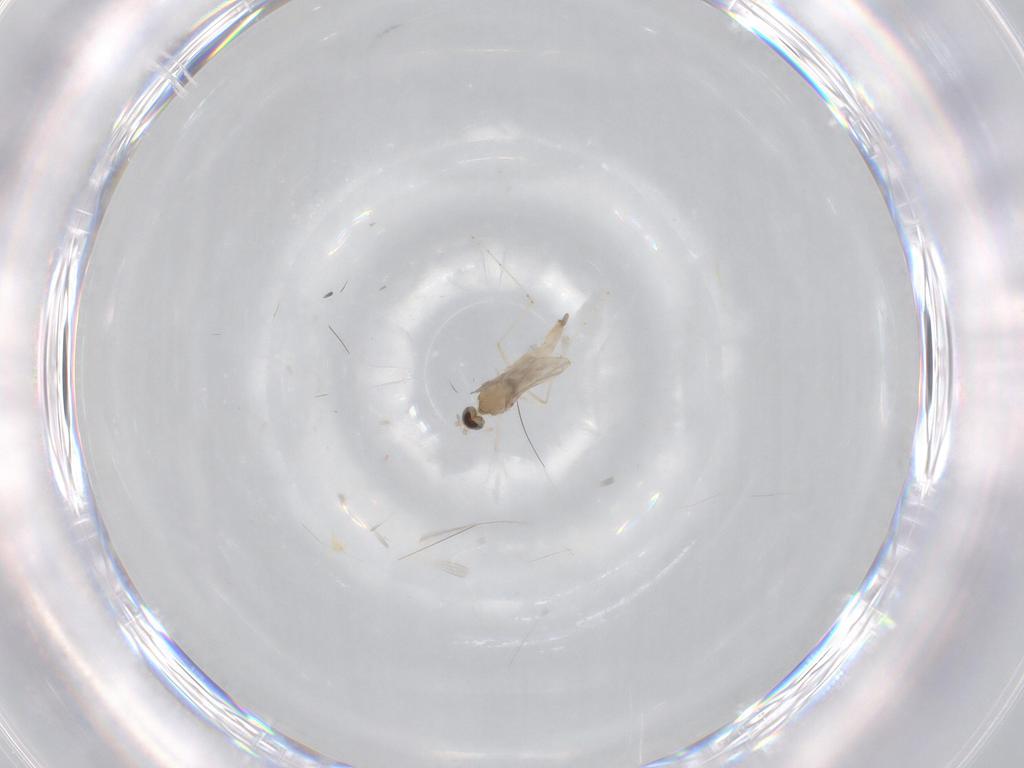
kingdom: Animalia
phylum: Arthropoda
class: Insecta
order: Diptera
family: Cecidomyiidae
